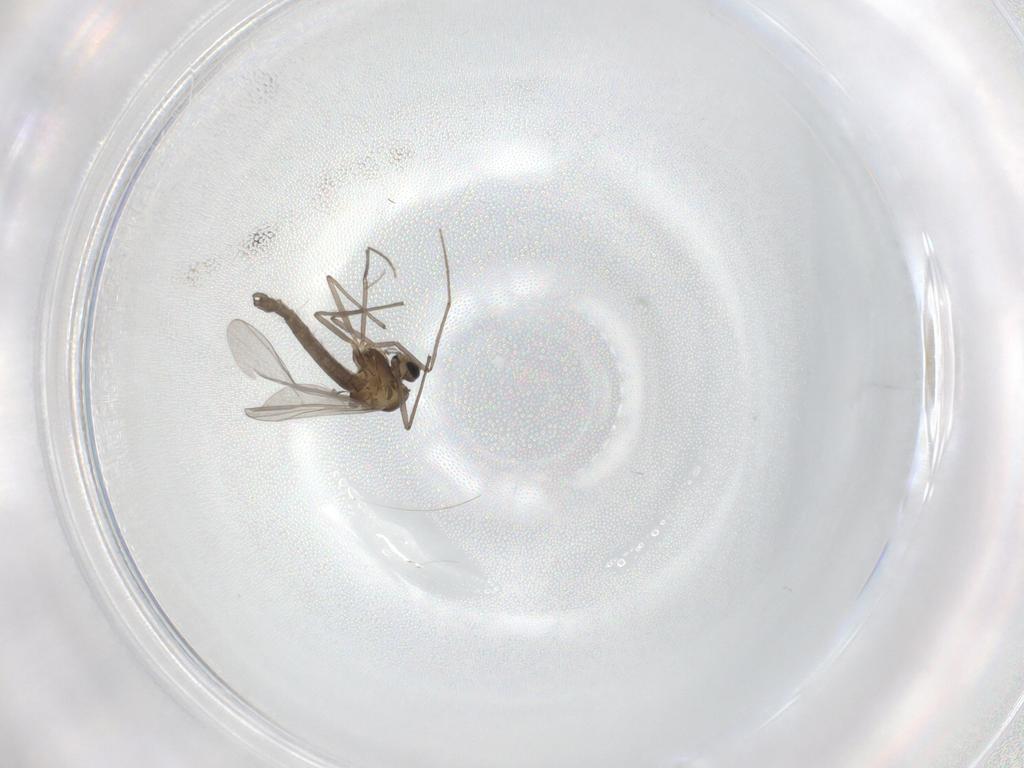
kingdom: Animalia
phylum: Arthropoda
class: Insecta
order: Diptera
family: Chironomidae
